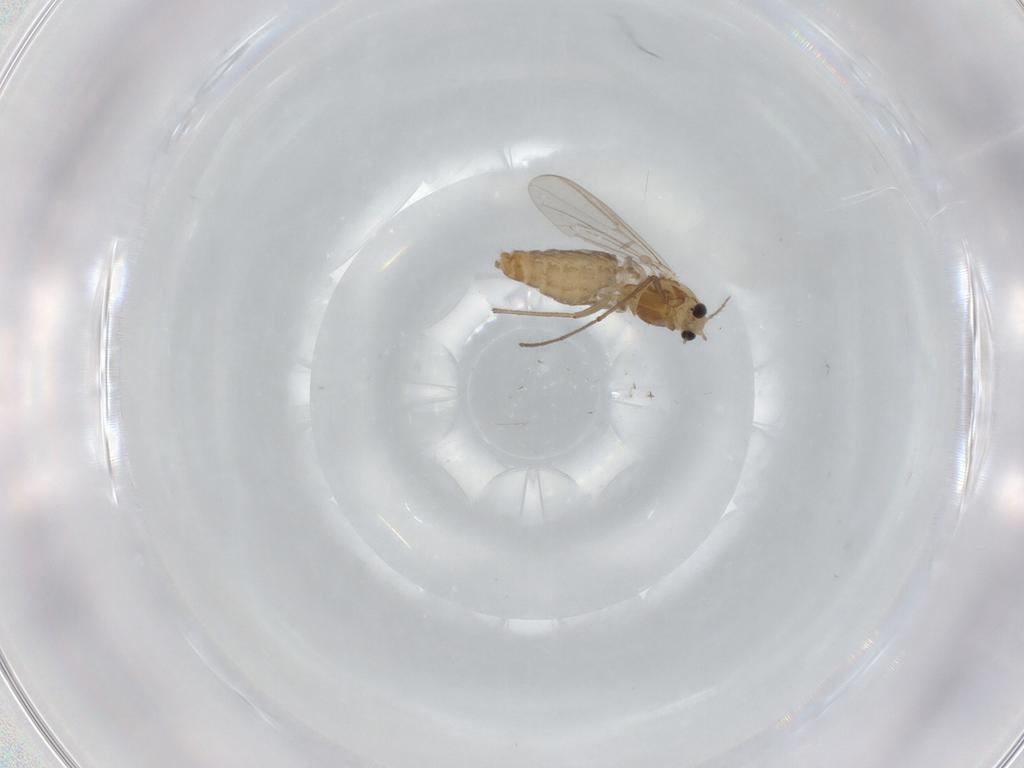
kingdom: Animalia
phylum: Arthropoda
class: Insecta
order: Diptera
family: Chironomidae
